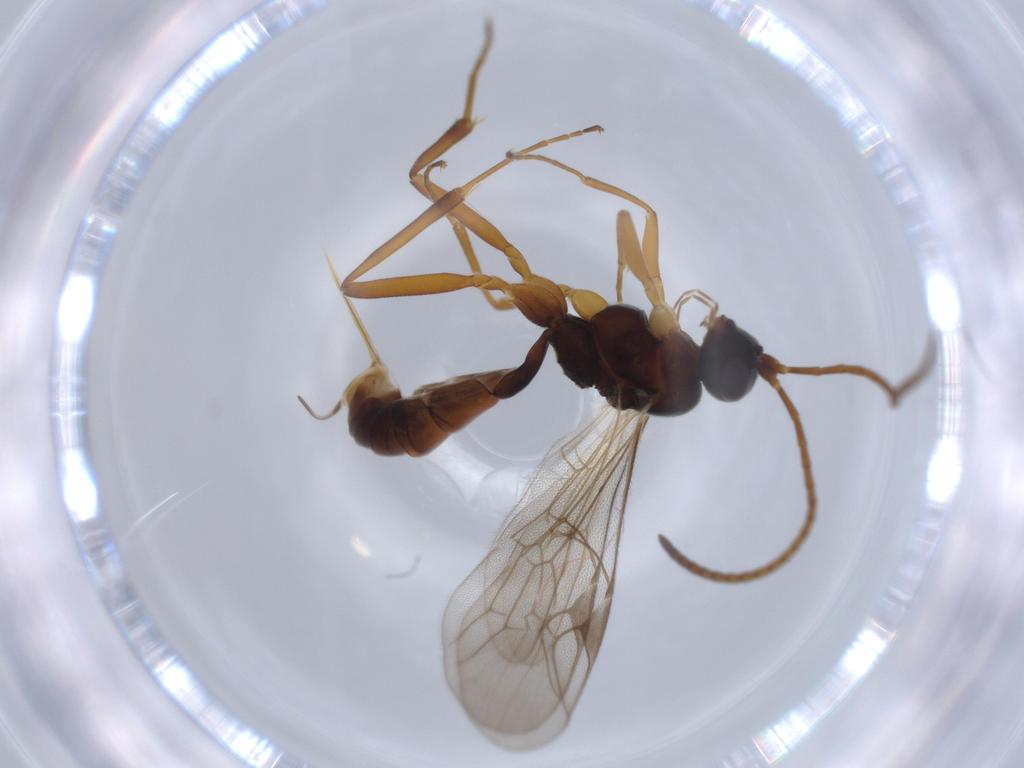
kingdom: Animalia
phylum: Arthropoda
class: Insecta
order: Hymenoptera
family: Ichneumonidae
